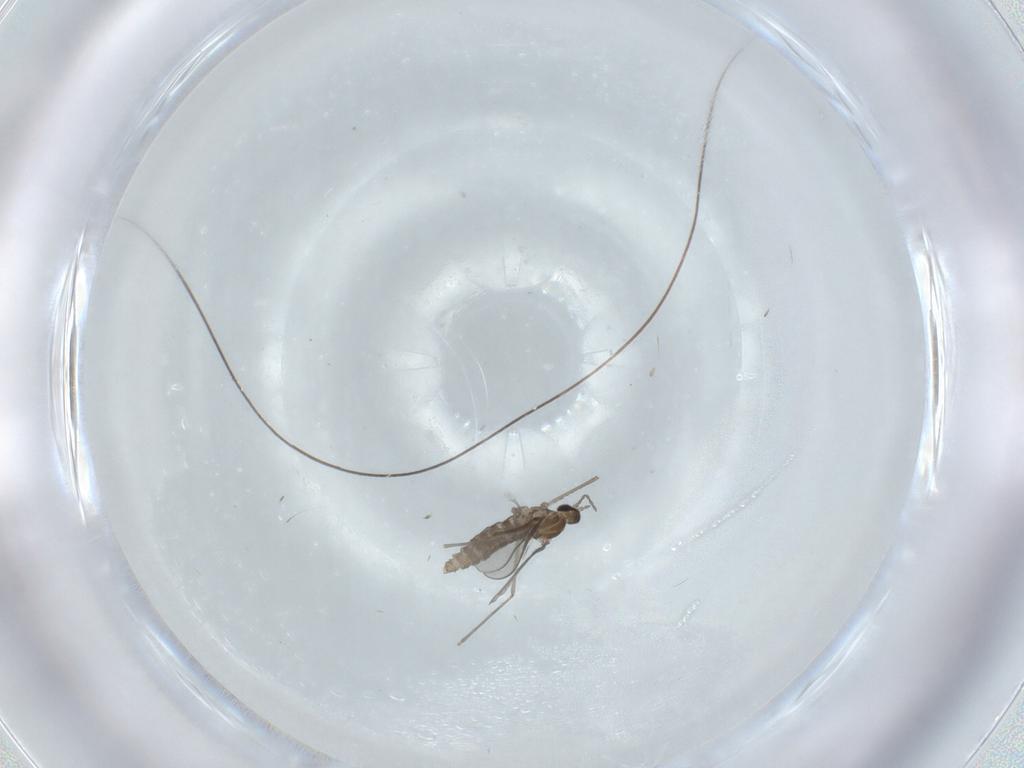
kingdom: Animalia
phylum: Arthropoda
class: Insecta
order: Diptera
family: Cecidomyiidae
